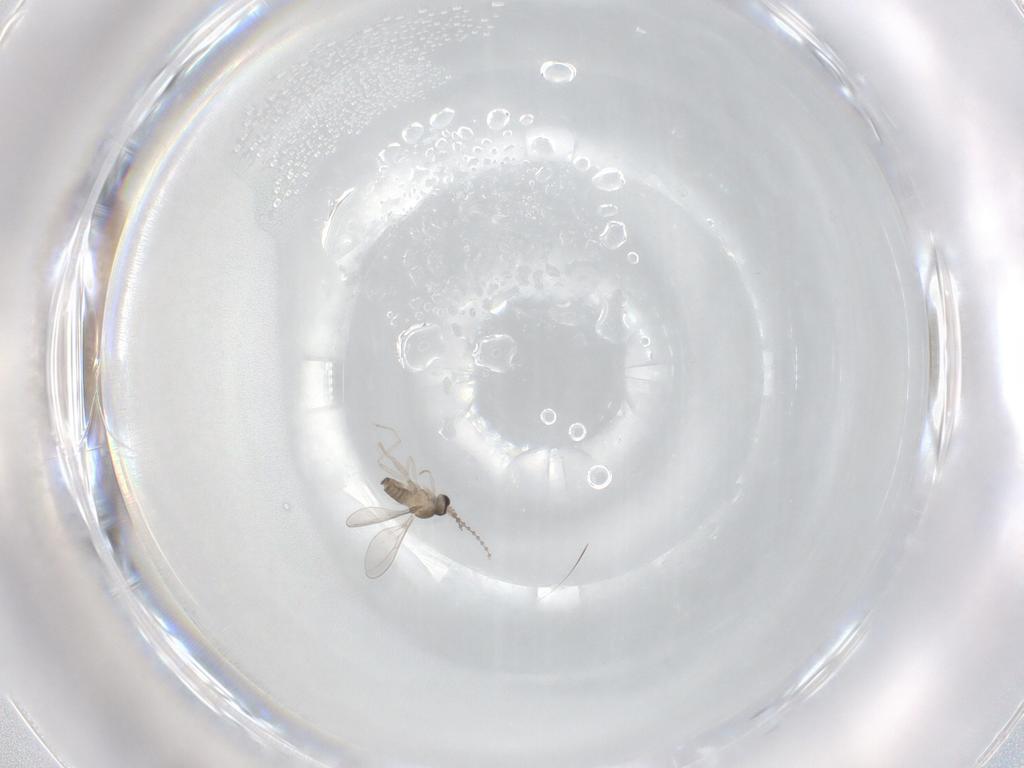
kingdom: Animalia
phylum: Arthropoda
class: Insecta
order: Diptera
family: Cecidomyiidae
